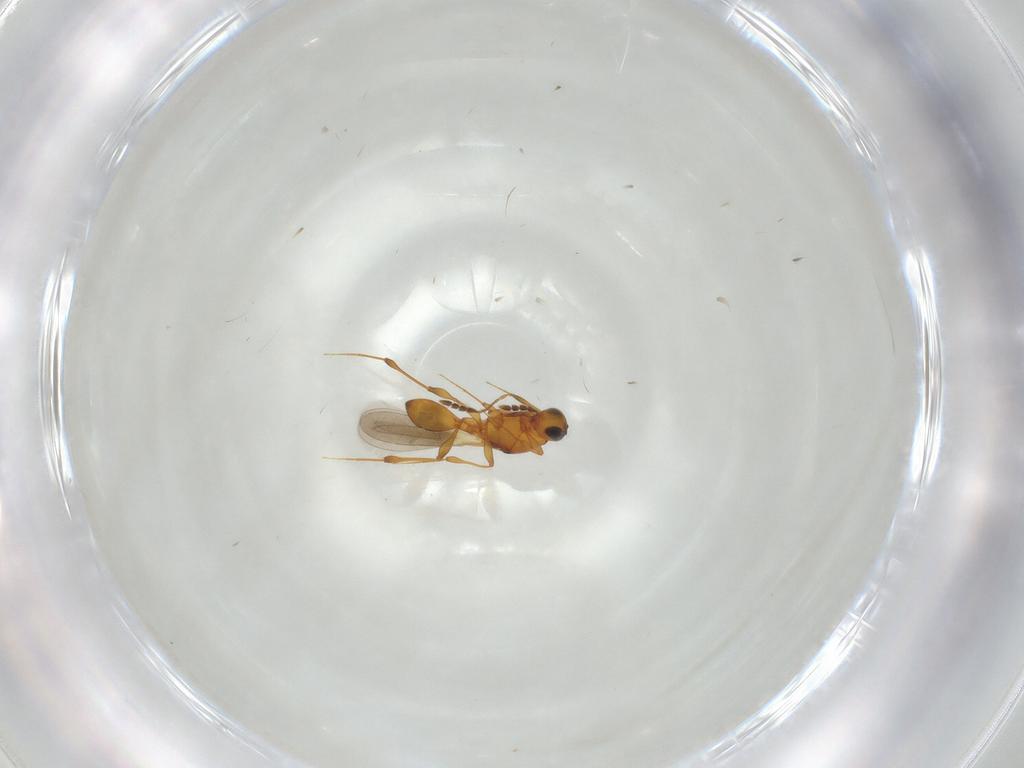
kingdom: Animalia
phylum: Arthropoda
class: Insecta
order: Hymenoptera
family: Platygastridae
